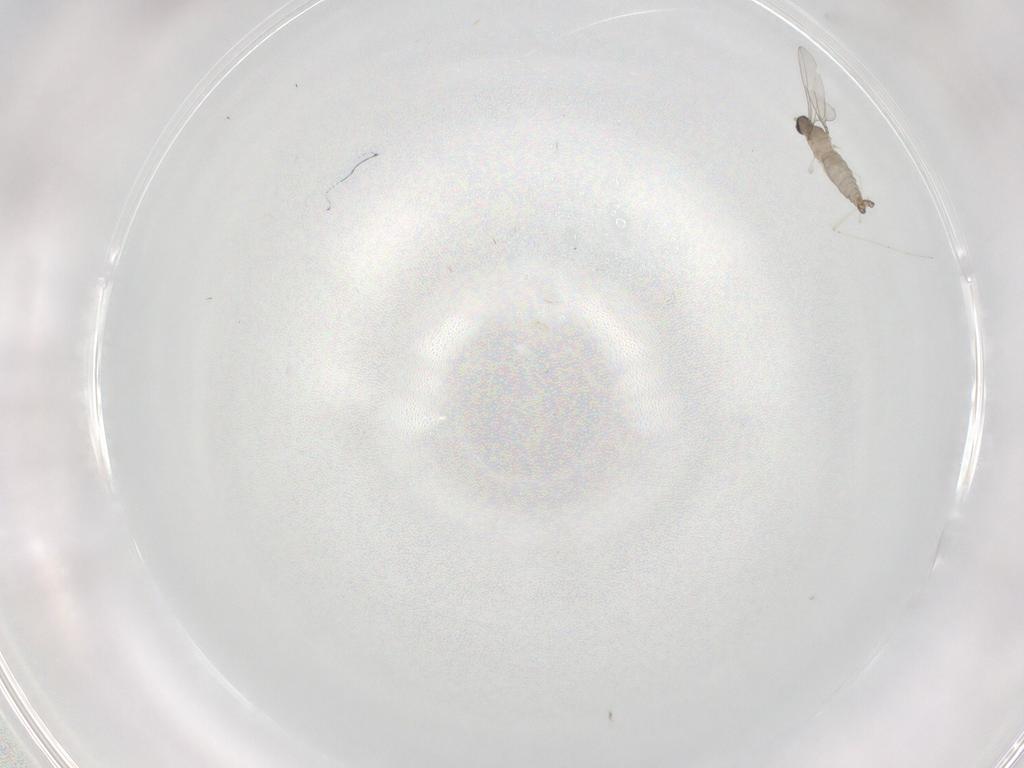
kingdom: Animalia
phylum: Arthropoda
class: Insecta
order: Diptera
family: Cecidomyiidae
